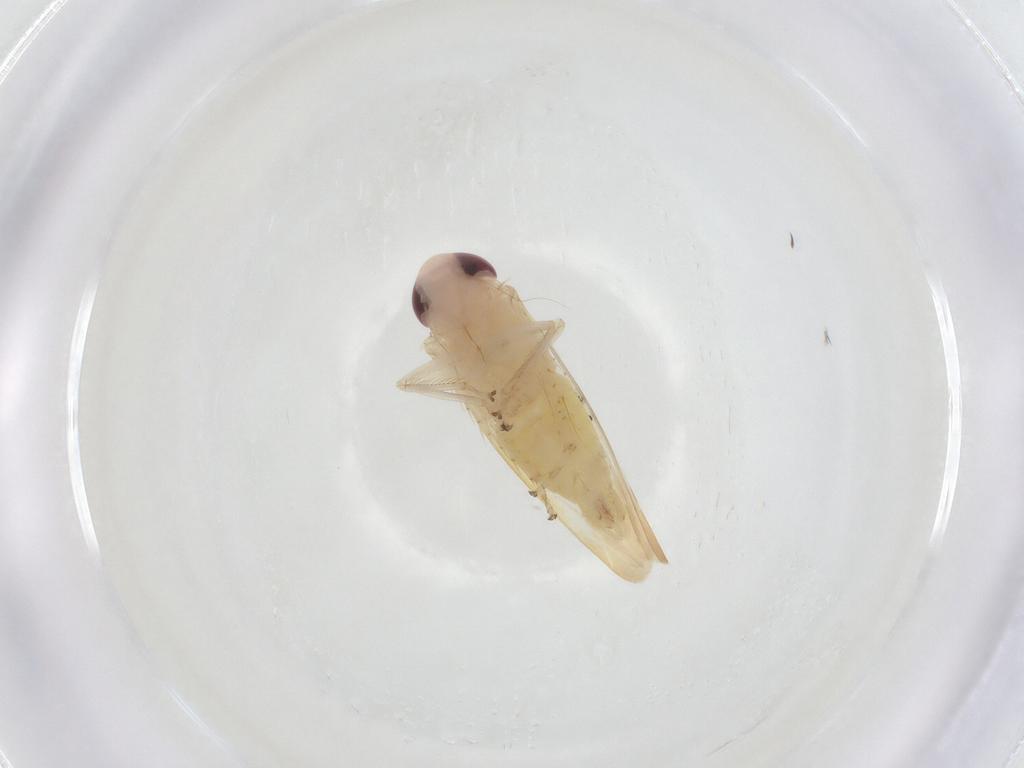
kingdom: Animalia
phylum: Arthropoda
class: Insecta
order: Hemiptera
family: Cicadellidae
